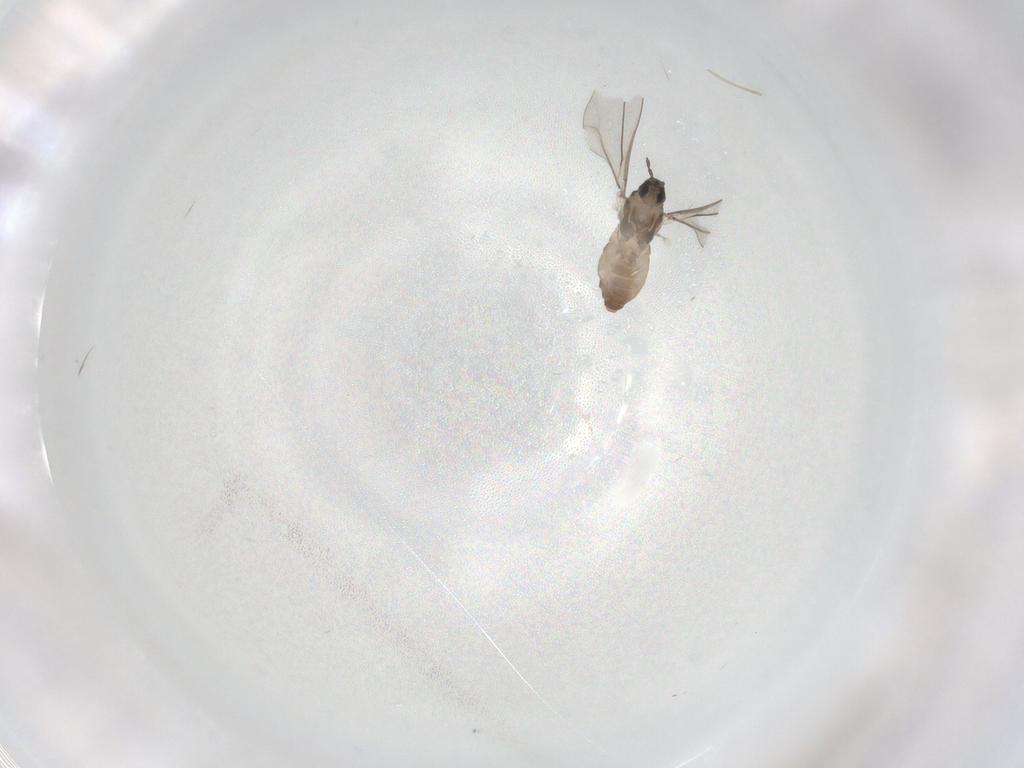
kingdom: Animalia
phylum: Arthropoda
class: Insecta
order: Diptera
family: Cecidomyiidae
